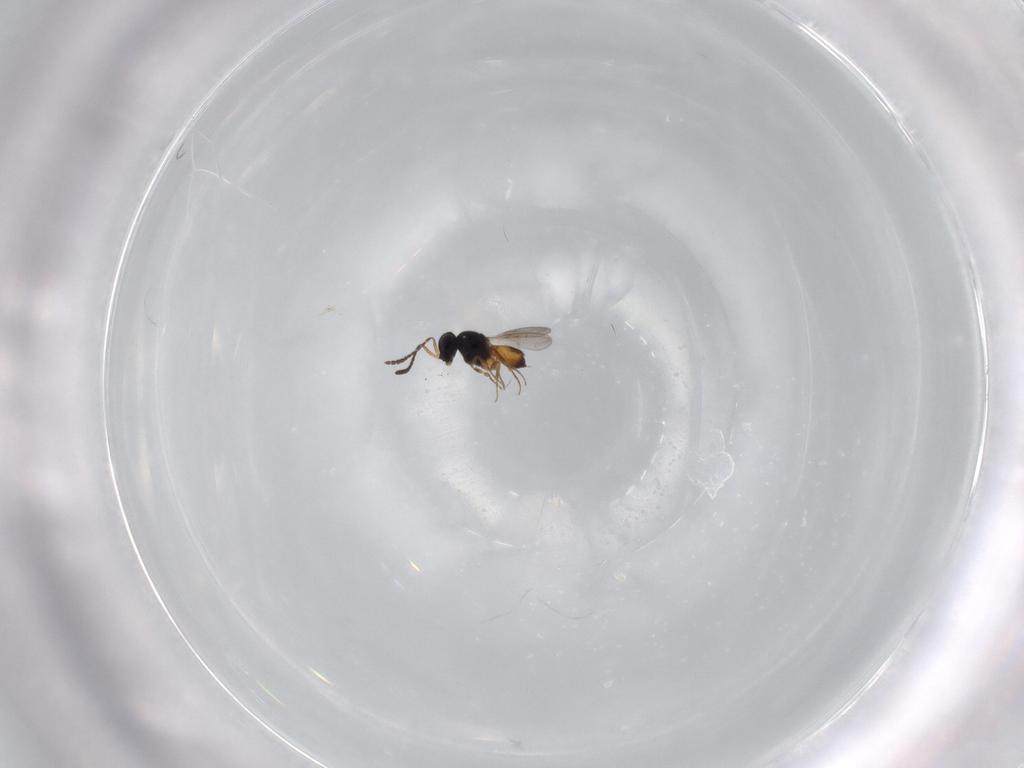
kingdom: Animalia
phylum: Arthropoda
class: Insecta
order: Hymenoptera
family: Scelionidae
